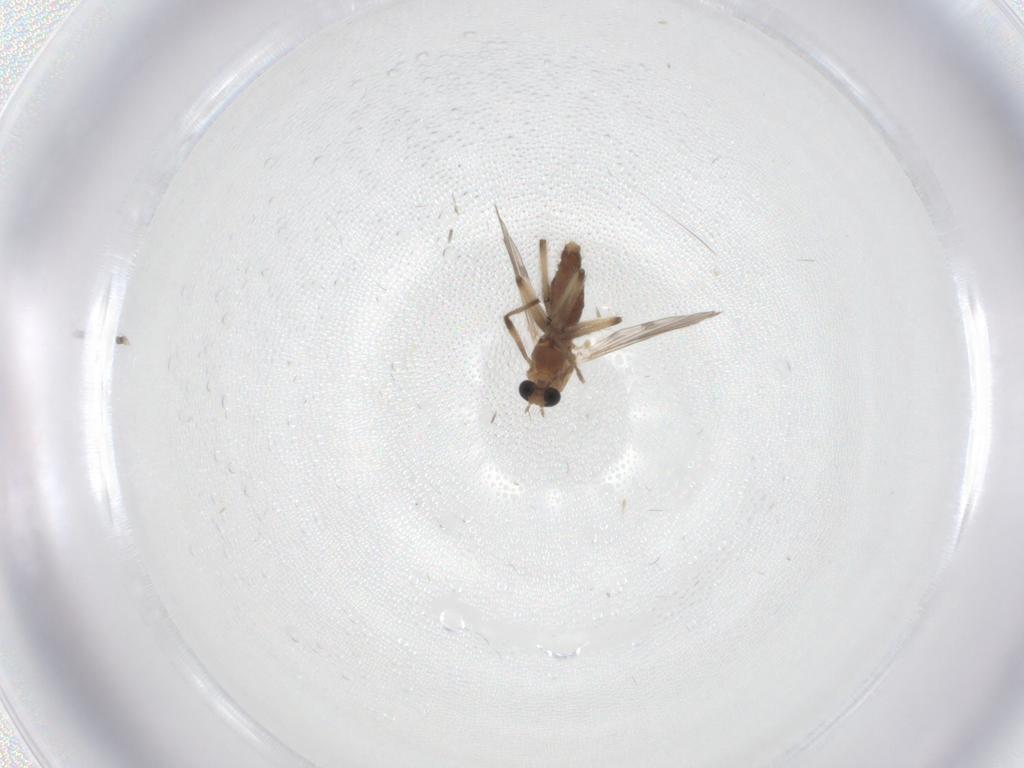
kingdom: Animalia
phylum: Arthropoda
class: Insecta
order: Diptera
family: Chironomidae
